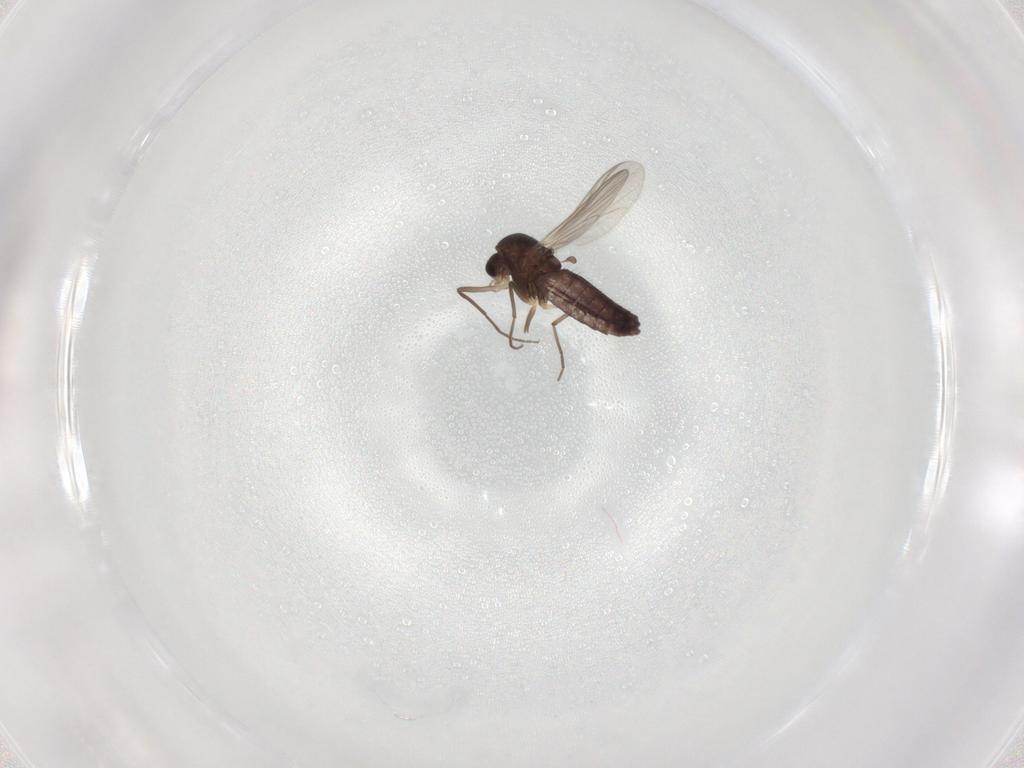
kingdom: Animalia
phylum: Arthropoda
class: Insecta
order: Diptera
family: Chironomidae
